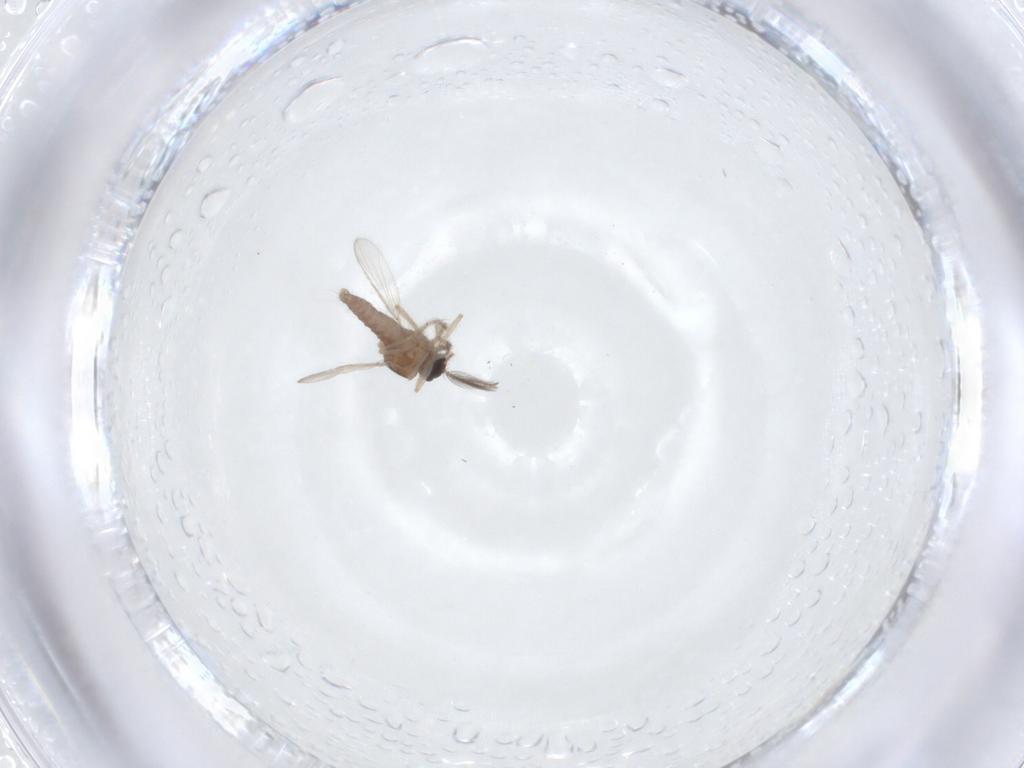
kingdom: Animalia
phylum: Arthropoda
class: Insecta
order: Diptera
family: Ceratopogonidae
